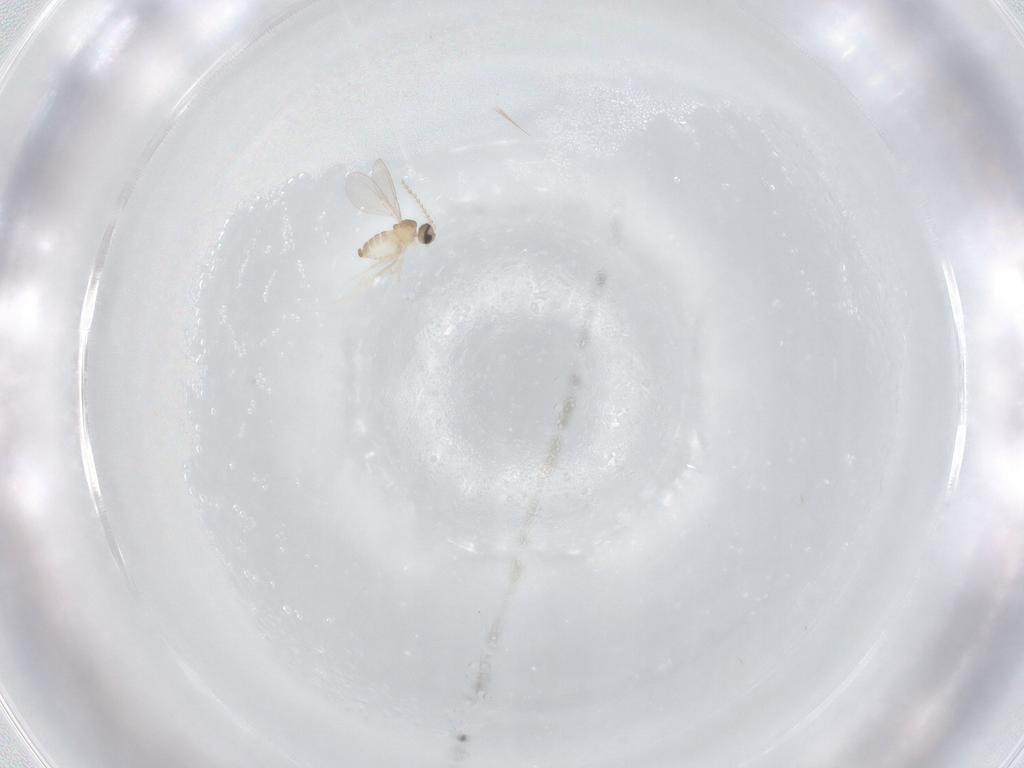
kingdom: Animalia
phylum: Arthropoda
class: Insecta
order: Diptera
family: Cecidomyiidae
